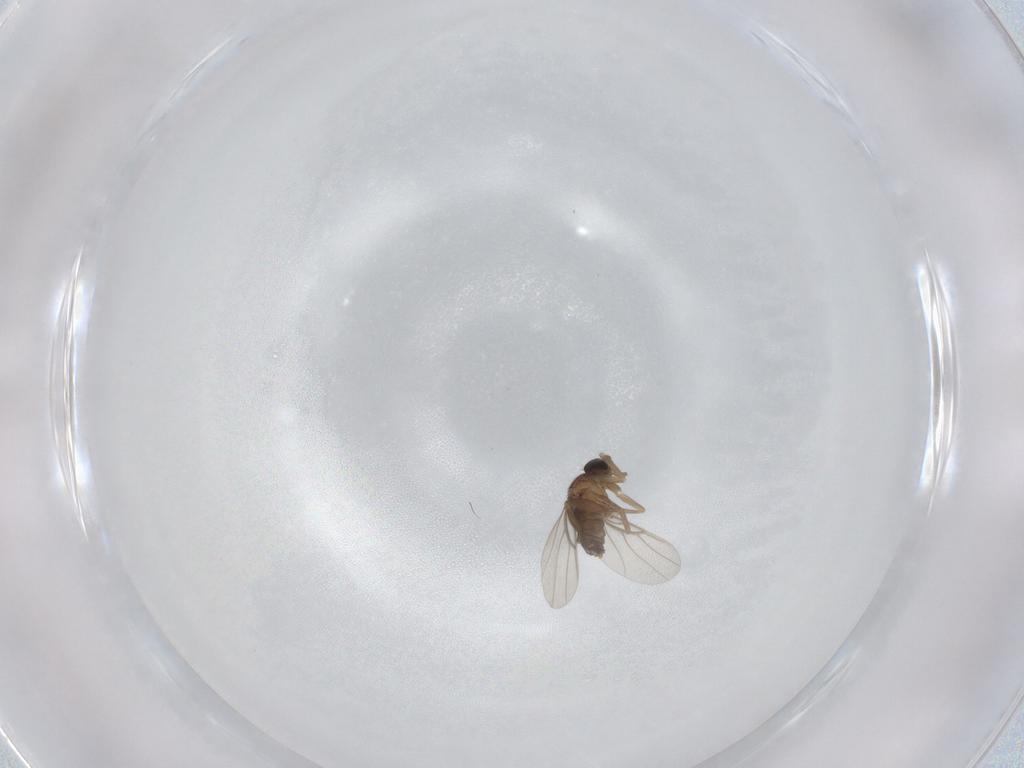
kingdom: Animalia
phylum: Arthropoda
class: Insecta
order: Diptera
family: Phoridae
